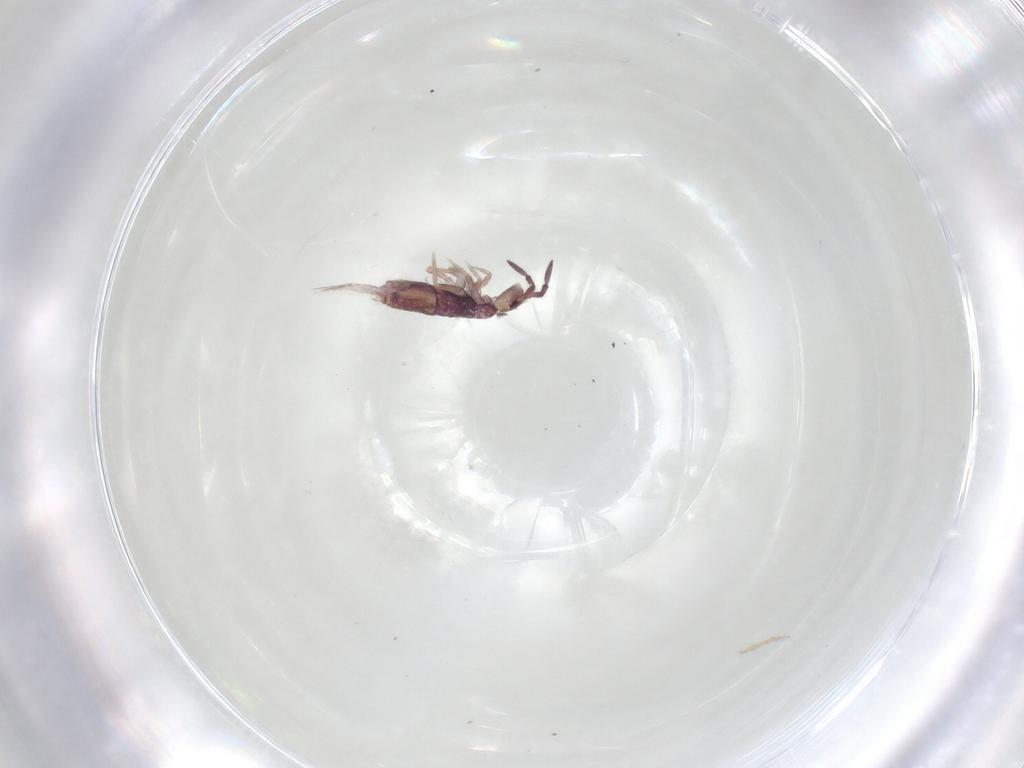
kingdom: Animalia
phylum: Arthropoda
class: Collembola
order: Entomobryomorpha
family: Entomobryidae
